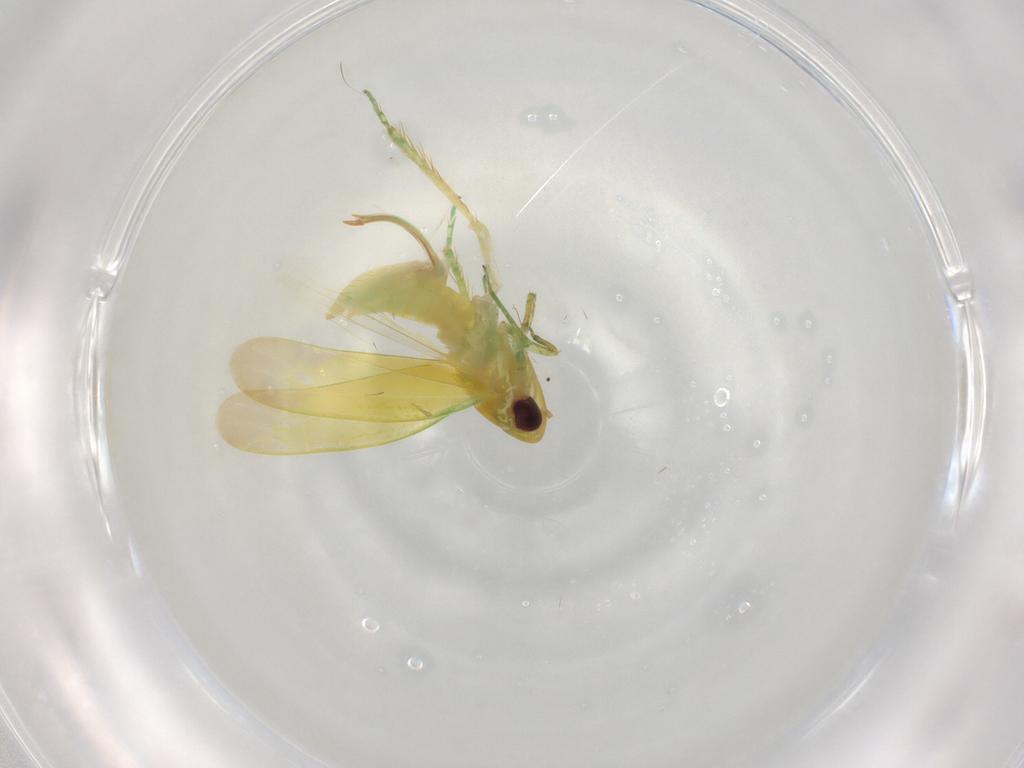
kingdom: Animalia
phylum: Arthropoda
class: Insecta
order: Hemiptera
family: Cicadellidae
